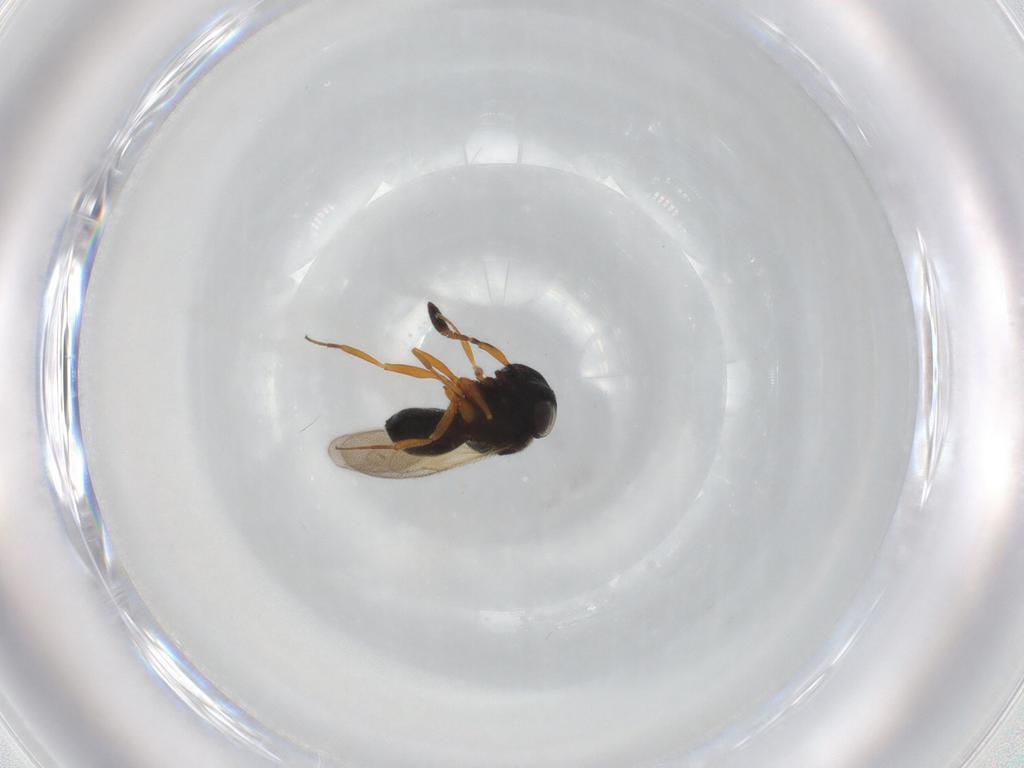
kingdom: Animalia
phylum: Arthropoda
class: Insecta
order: Hymenoptera
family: Scelionidae
